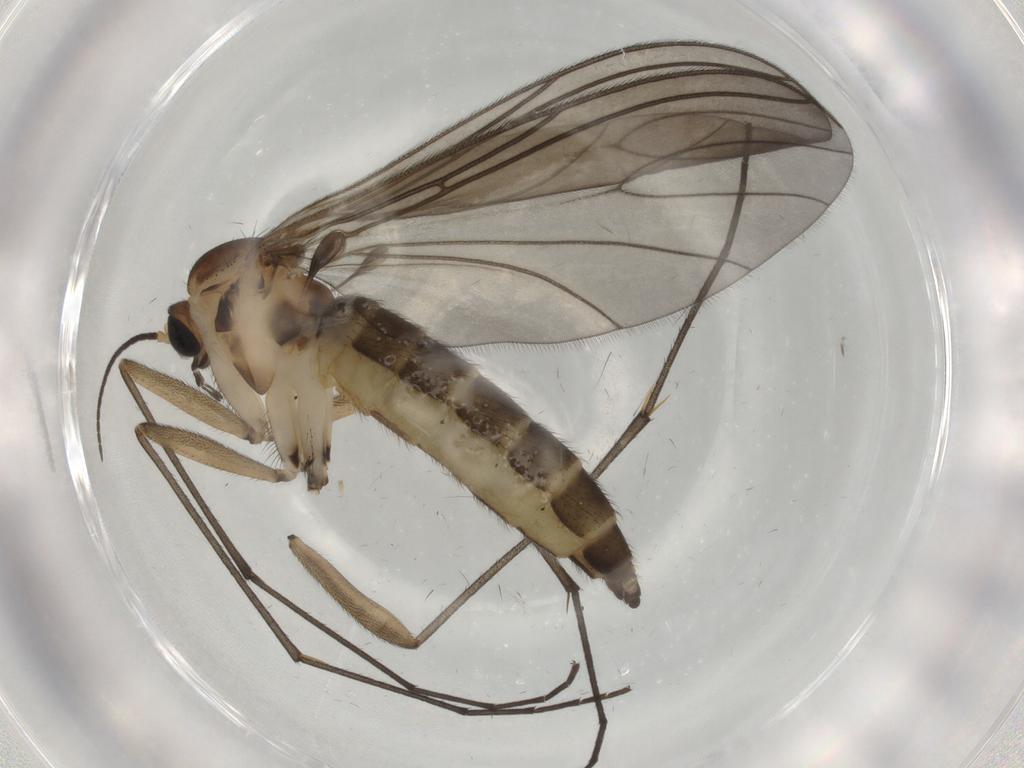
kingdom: Animalia
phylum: Arthropoda
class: Insecta
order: Diptera
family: Sciaridae
